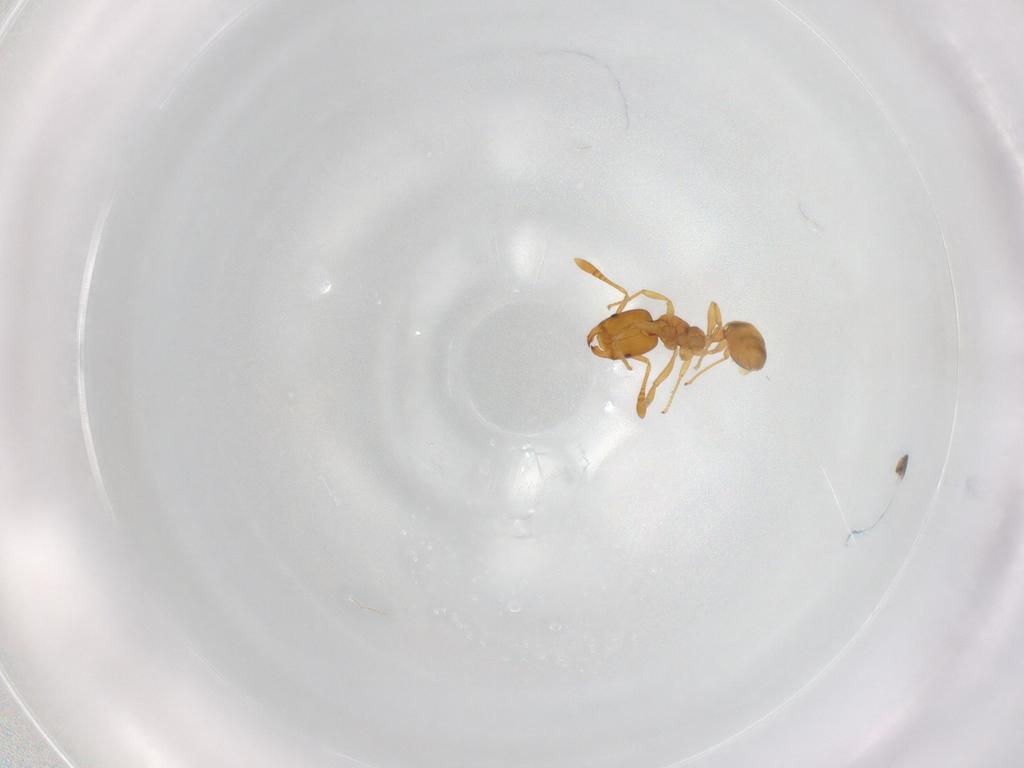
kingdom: Animalia
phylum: Arthropoda
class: Insecta
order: Hymenoptera
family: Formicidae
